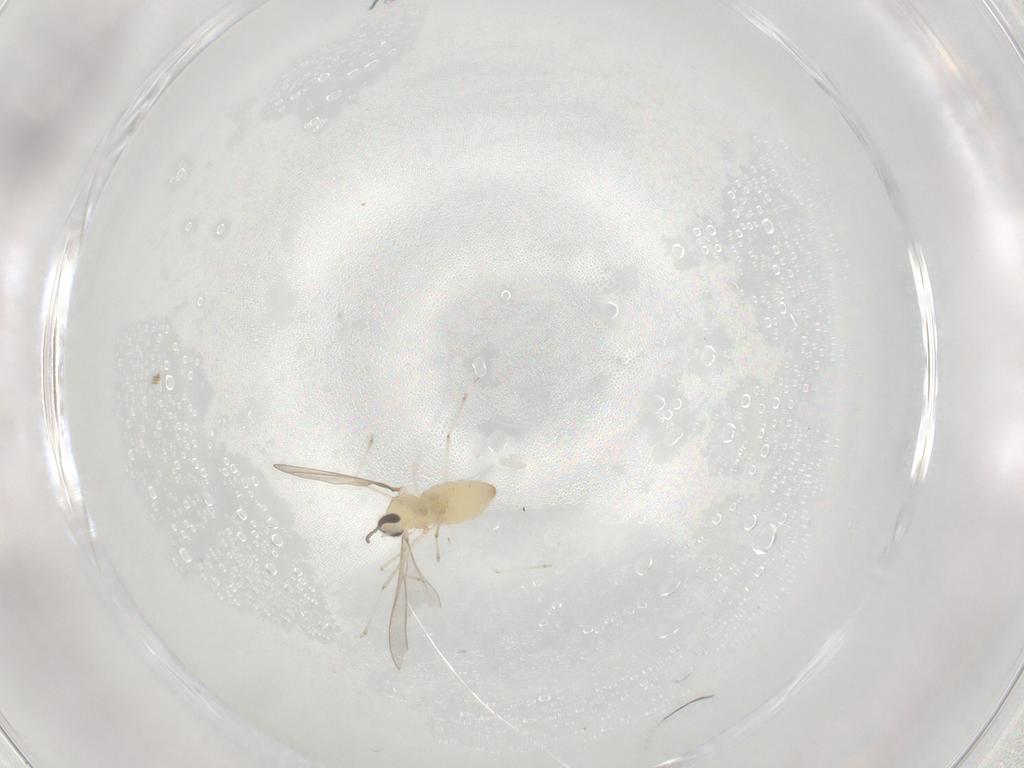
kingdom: Animalia
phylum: Arthropoda
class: Insecta
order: Diptera
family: Cecidomyiidae
